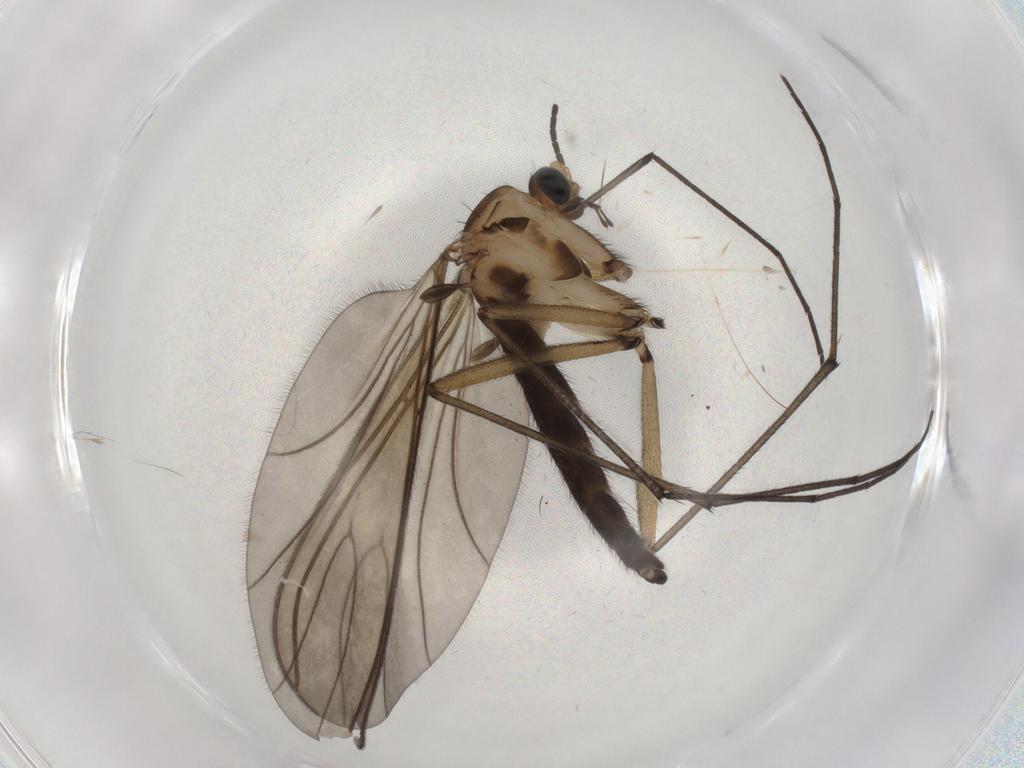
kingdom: Animalia
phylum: Arthropoda
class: Insecta
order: Diptera
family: Sciaridae
